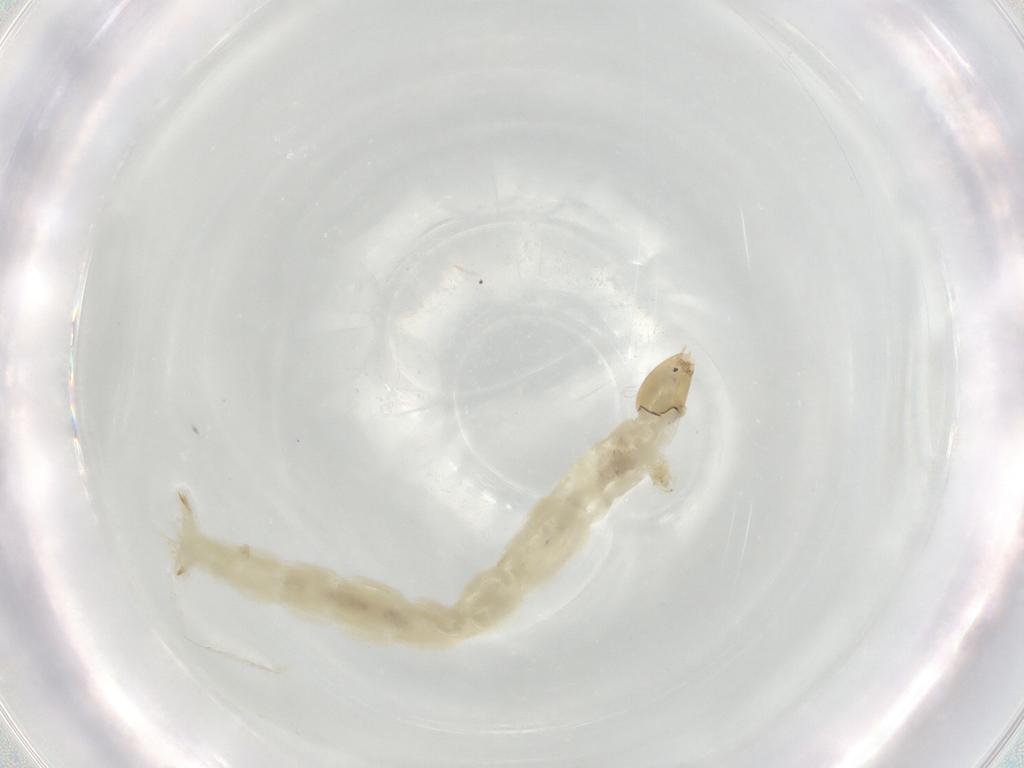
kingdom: Animalia
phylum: Arthropoda
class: Insecta
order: Diptera
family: Chironomidae
